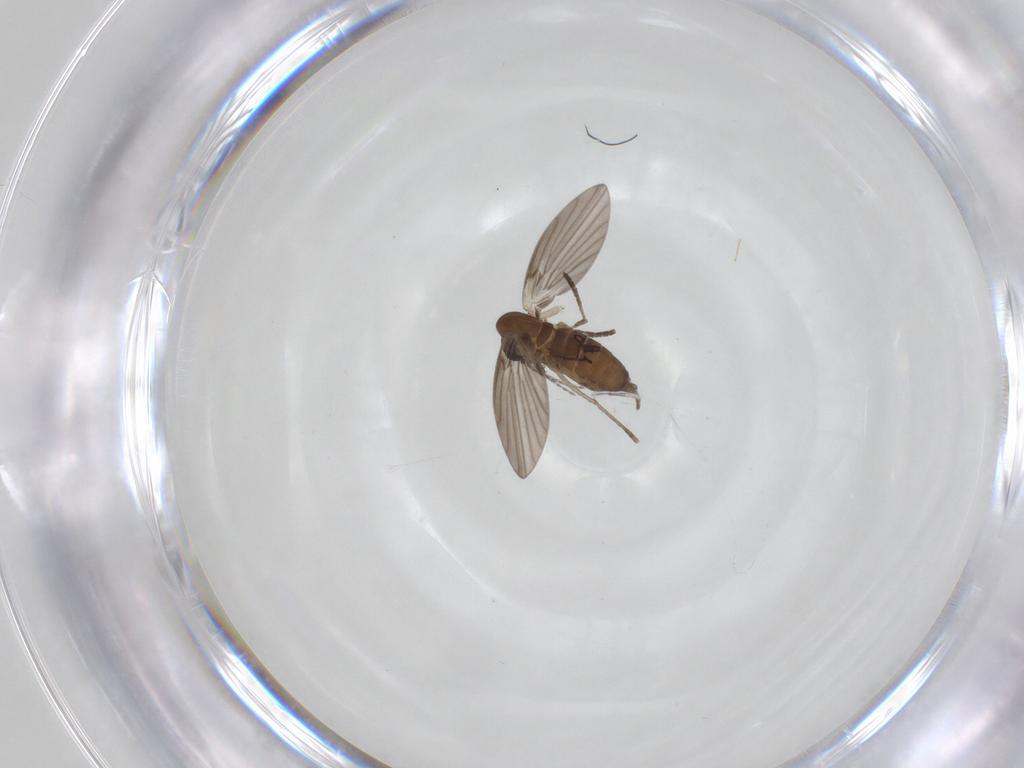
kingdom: Animalia
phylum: Arthropoda
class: Insecta
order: Diptera
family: Psychodidae
